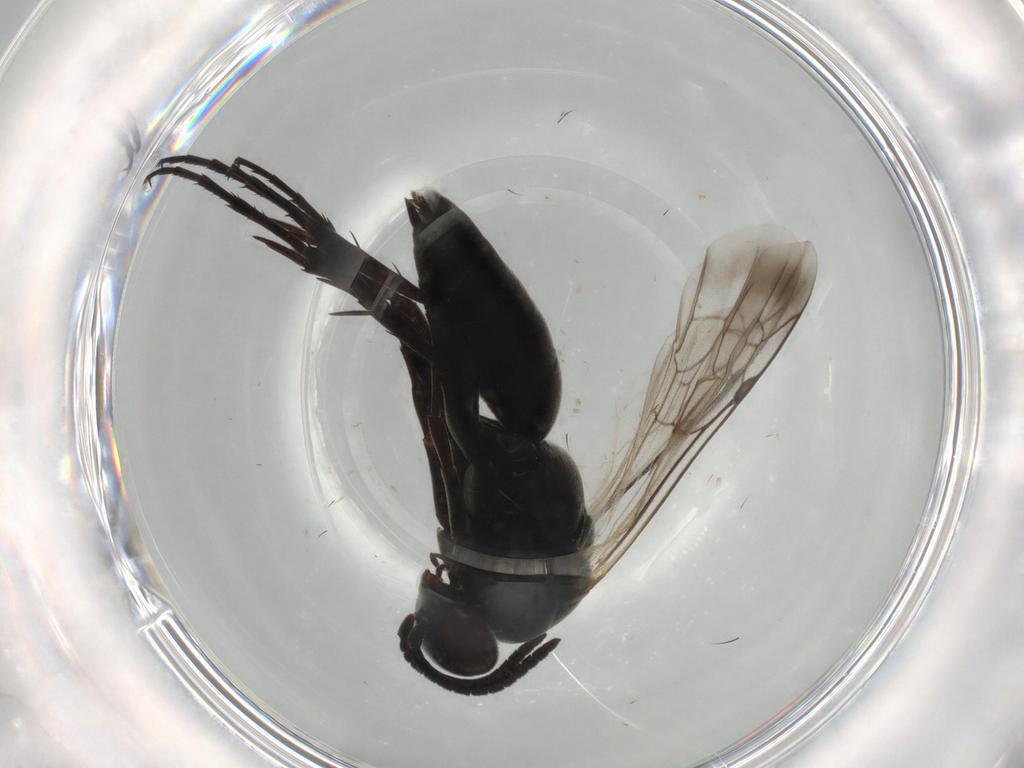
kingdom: Animalia
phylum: Arthropoda
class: Insecta
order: Hymenoptera
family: Pompilidae
